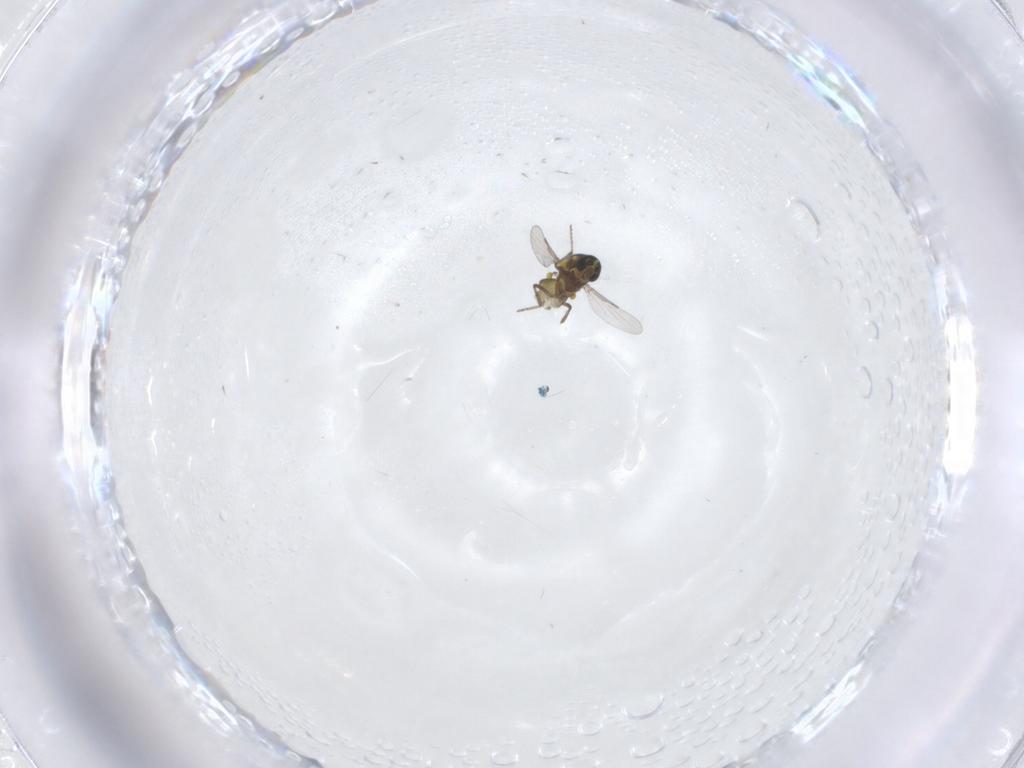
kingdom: Animalia
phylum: Arthropoda
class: Insecta
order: Diptera
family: Ceratopogonidae
